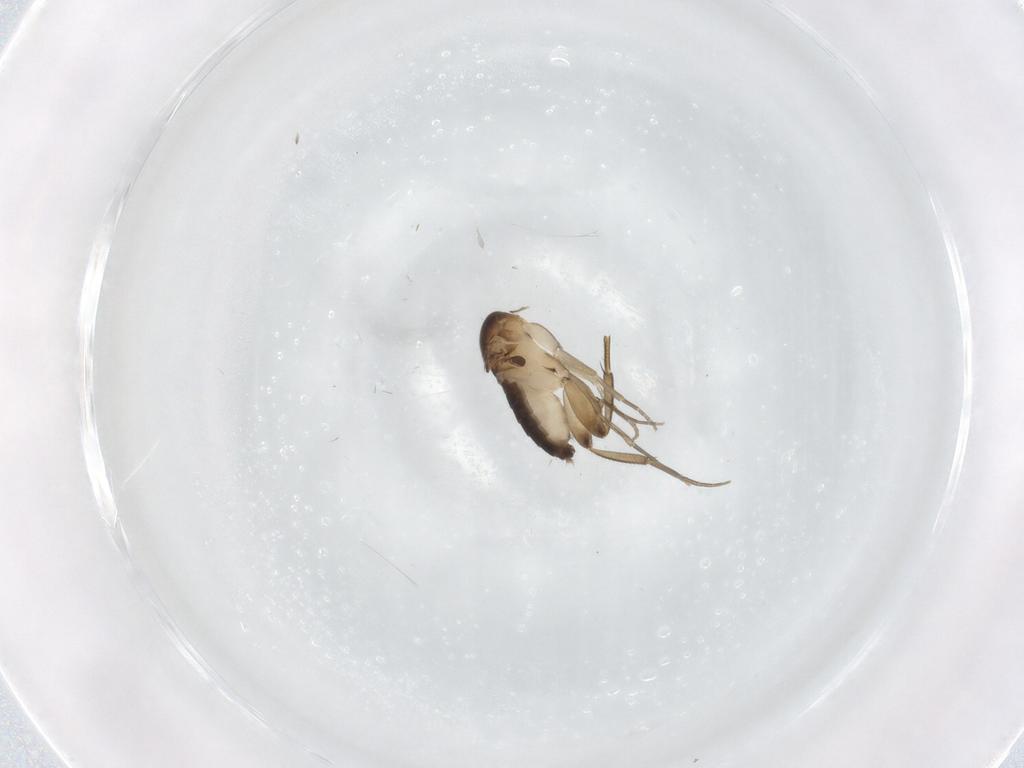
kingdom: Animalia
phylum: Arthropoda
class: Insecta
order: Diptera
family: Phoridae
